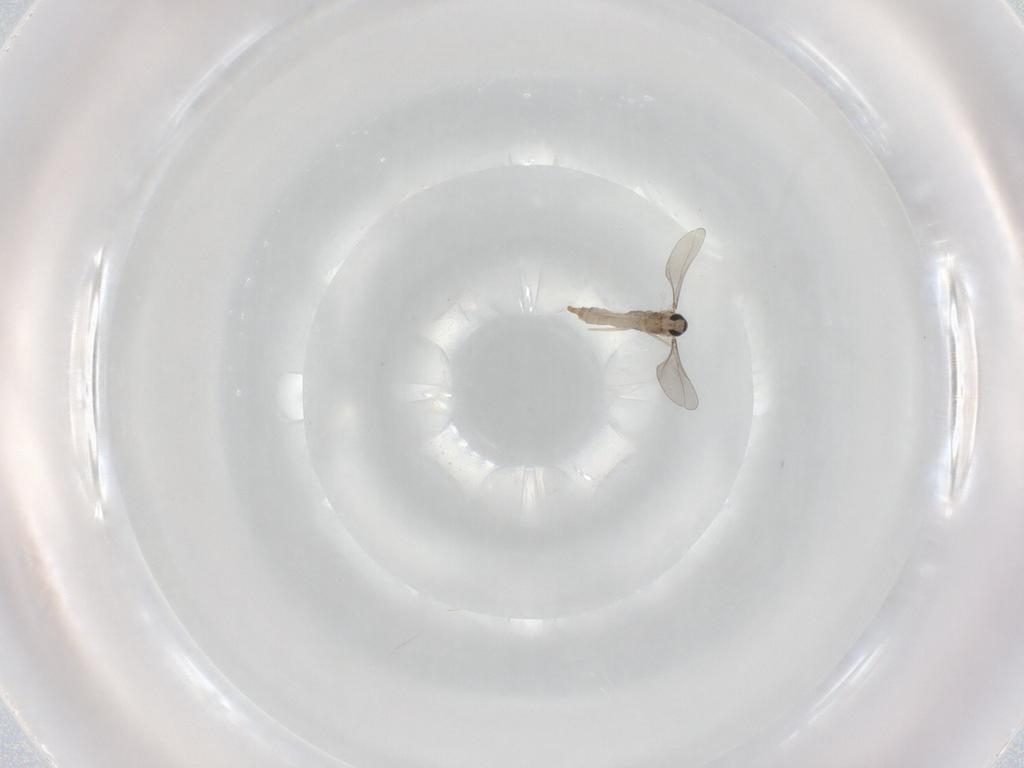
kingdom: Animalia
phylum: Arthropoda
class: Insecta
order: Diptera
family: Cecidomyiidae
